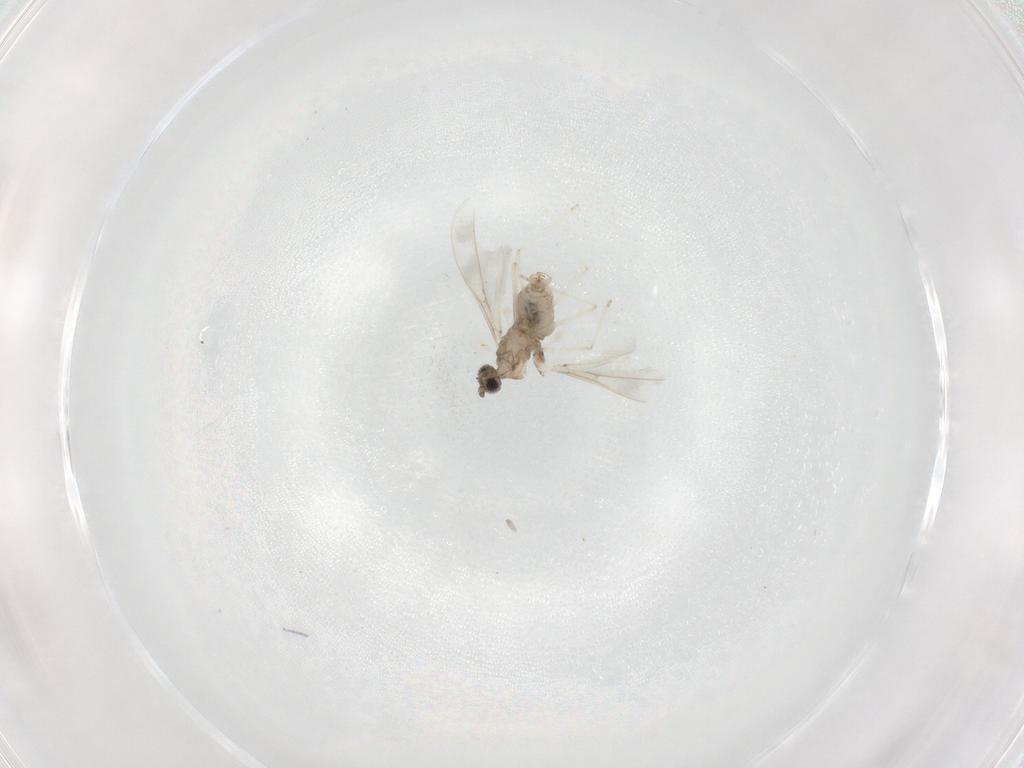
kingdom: Animalia
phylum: Arthropoda
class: Insecta
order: Diptera
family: Cecidomyiidae
